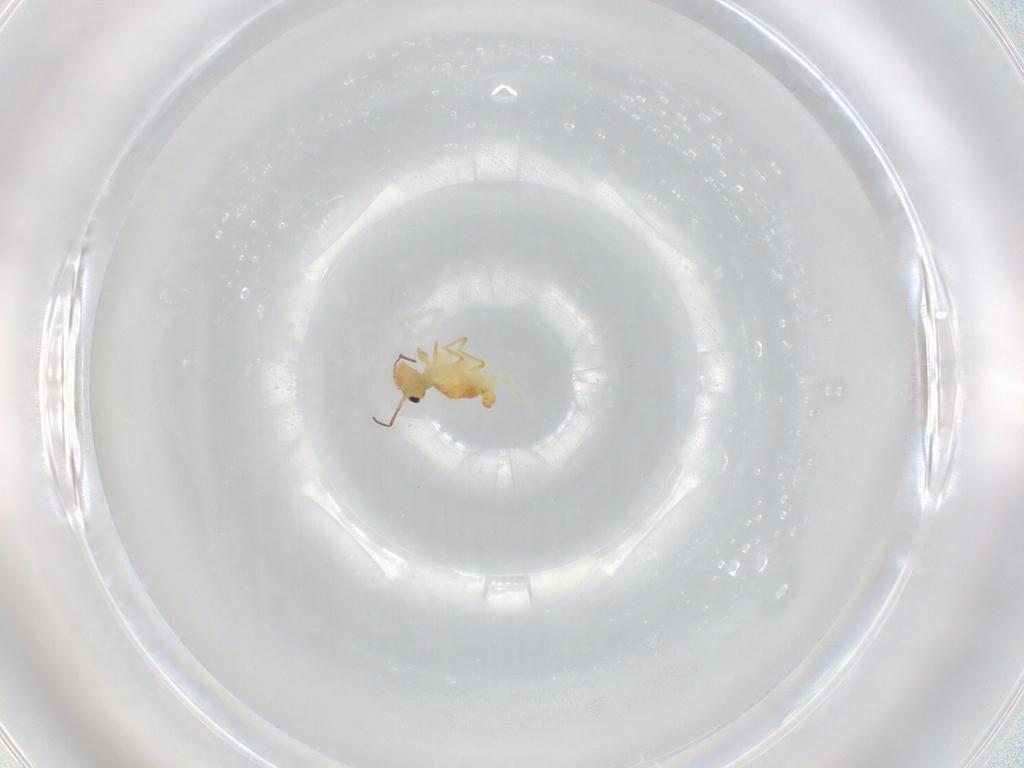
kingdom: Animalia
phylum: Arthropoda
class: Collembola
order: Symphypleona
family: Bourletiellidae
